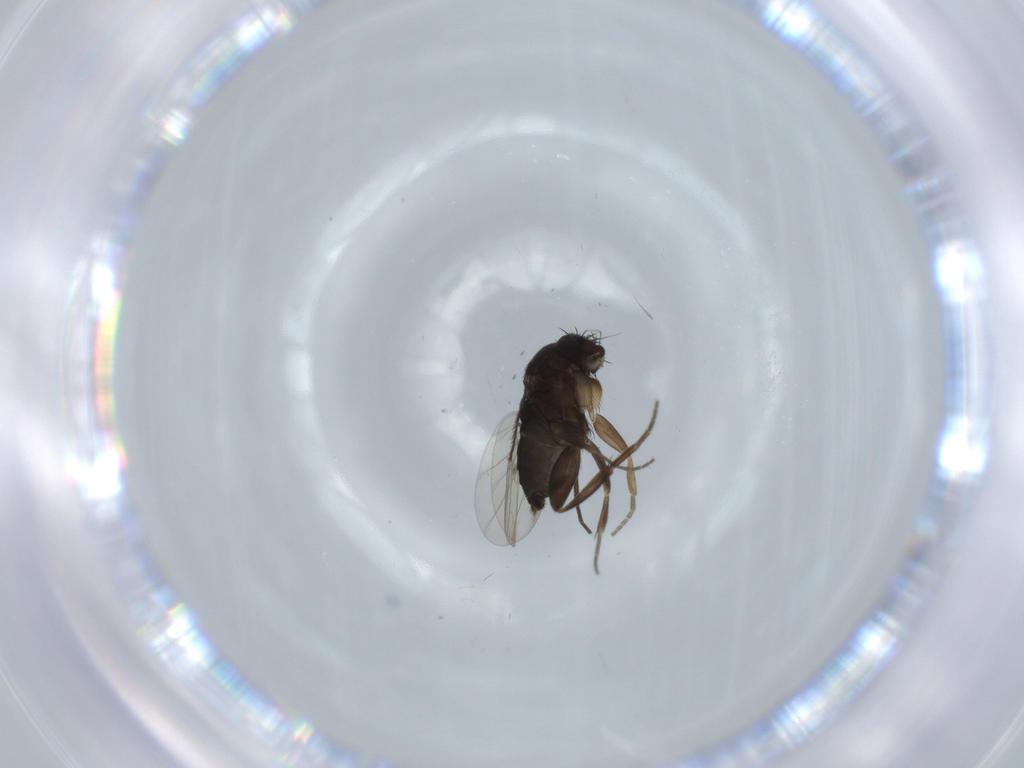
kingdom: Animalia
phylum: Arthropoda
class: Insecta
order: Diptera
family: Phoridae
